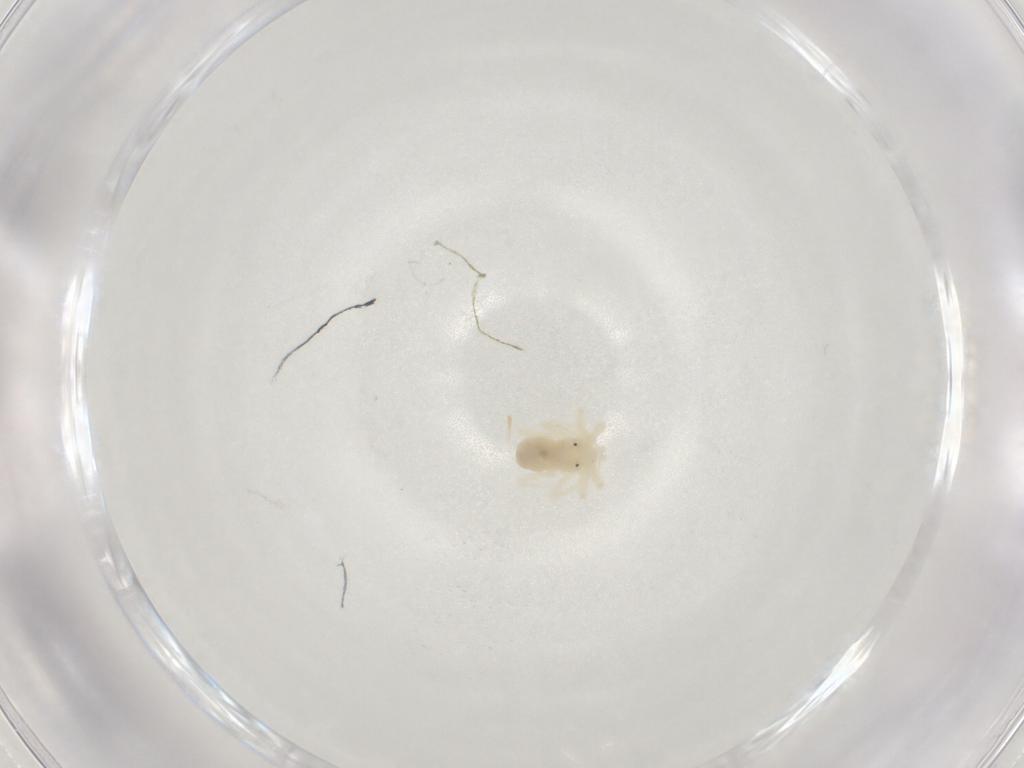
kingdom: Animalia
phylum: Arthropoda
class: Arachnida
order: Trombidiformes
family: Anystidae
